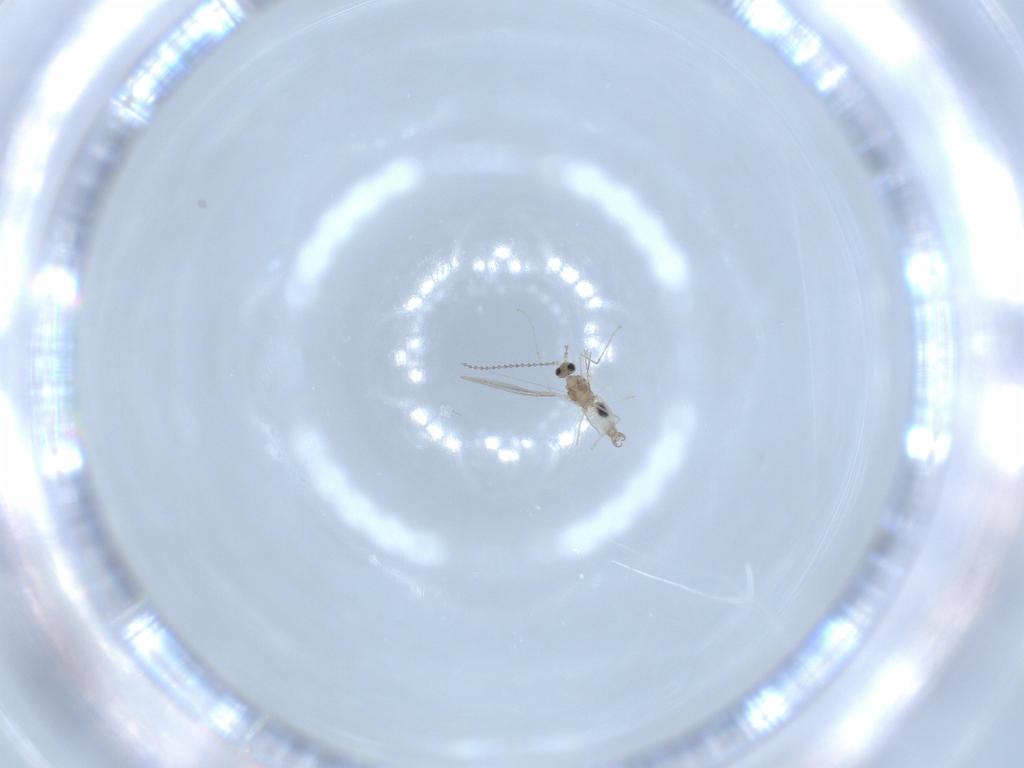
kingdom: Animalia
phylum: Arthropoda
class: Insecta
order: Diptera
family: Cecidomyiidae
